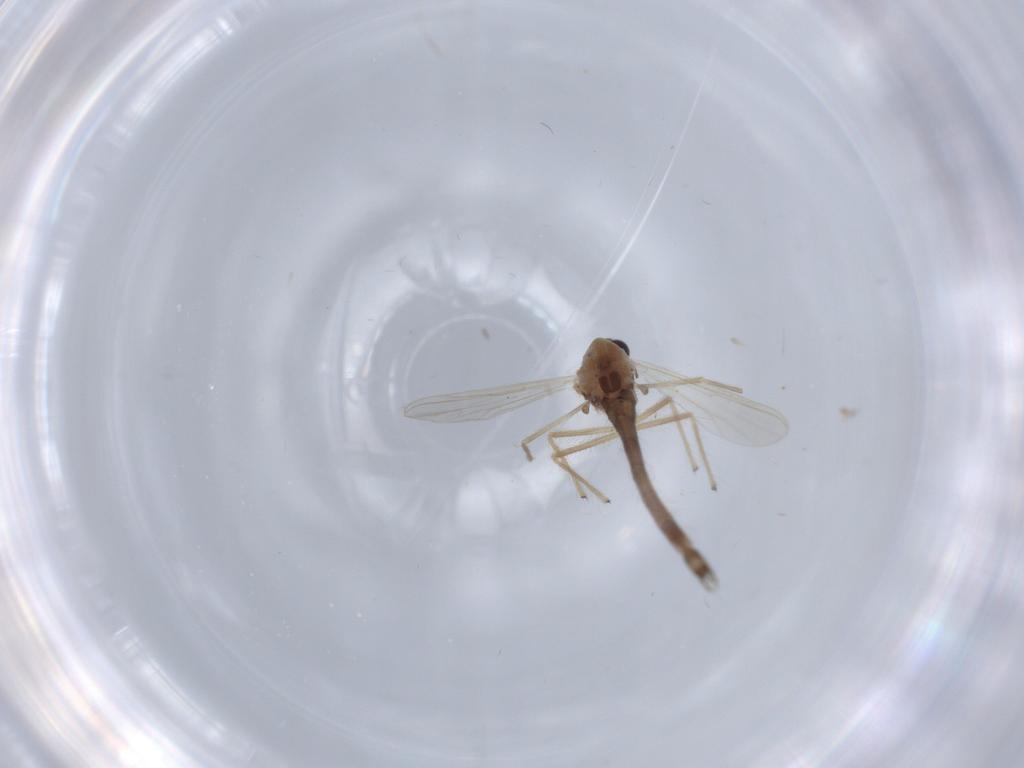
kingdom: Animalia
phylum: Arthropoda
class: Insecta
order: Diptera
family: Chironomidae
